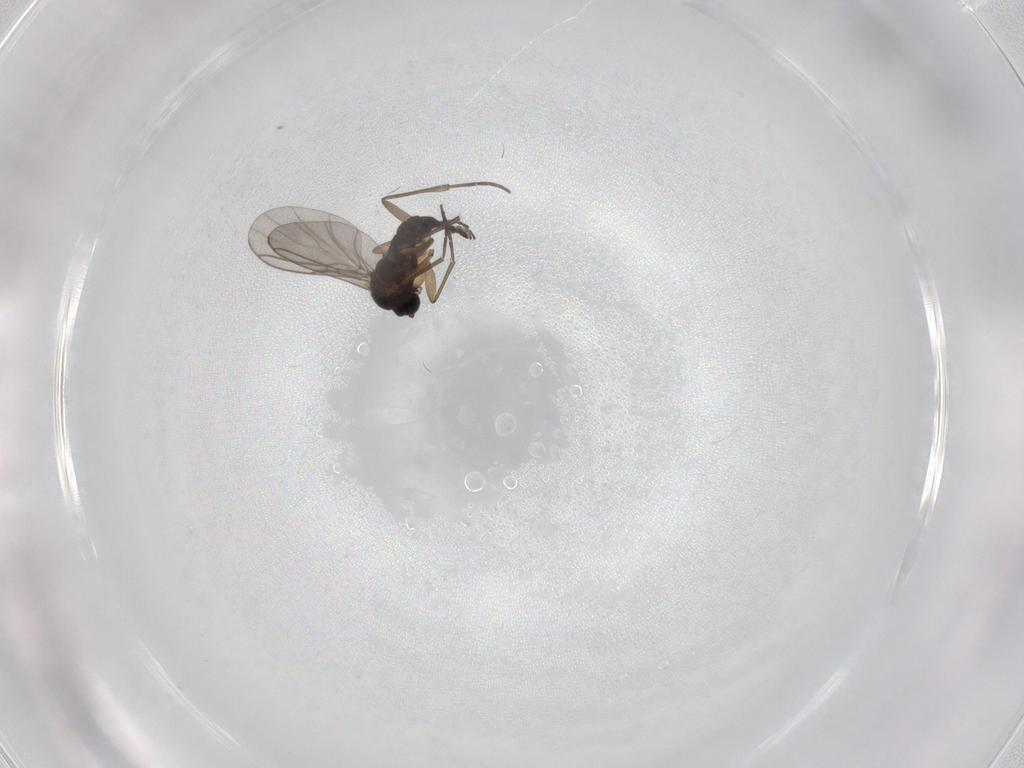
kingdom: Animalia
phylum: Arthropoda
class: Insecta
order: Diptera
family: Sciaridae
